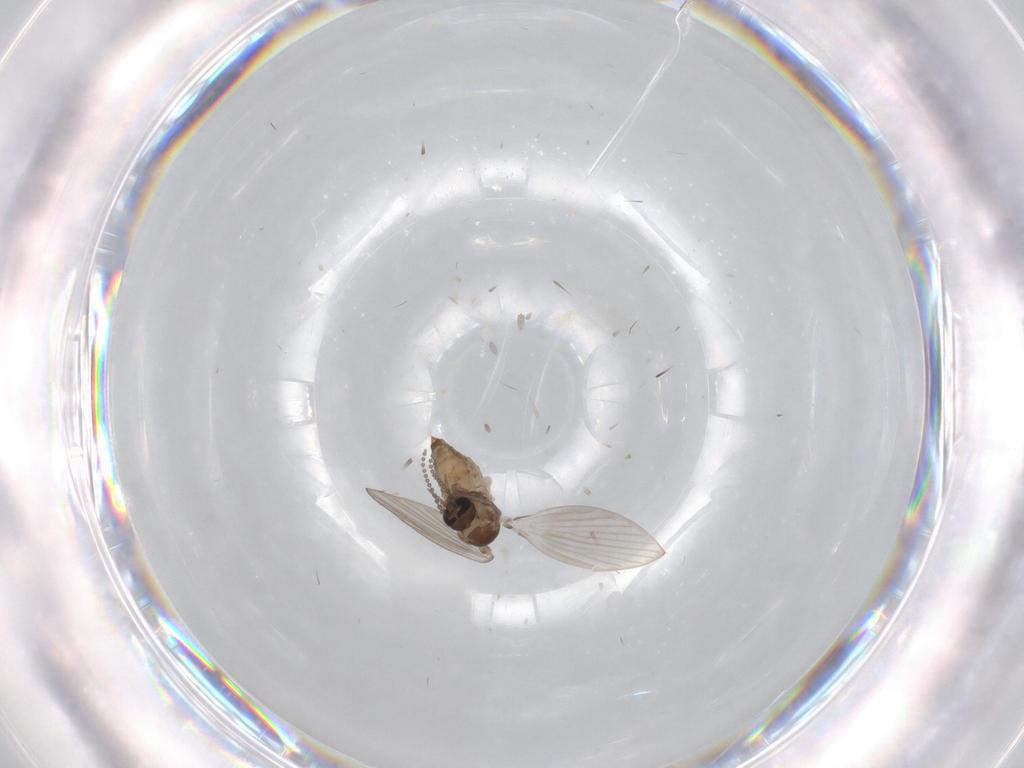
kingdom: Animalia
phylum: Arthropoda
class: Insecta
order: Diptera
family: Psychodidae
